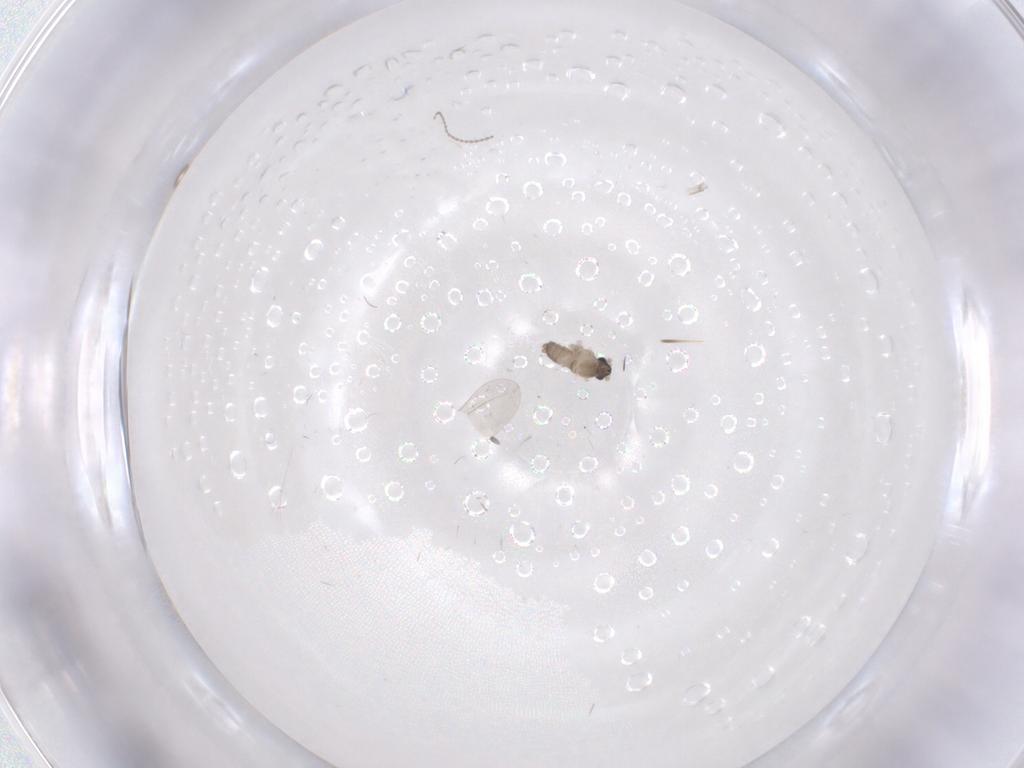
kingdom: Animalia
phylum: Arthropoda
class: Insecta
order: Diptera
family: Cecidomyiidae
